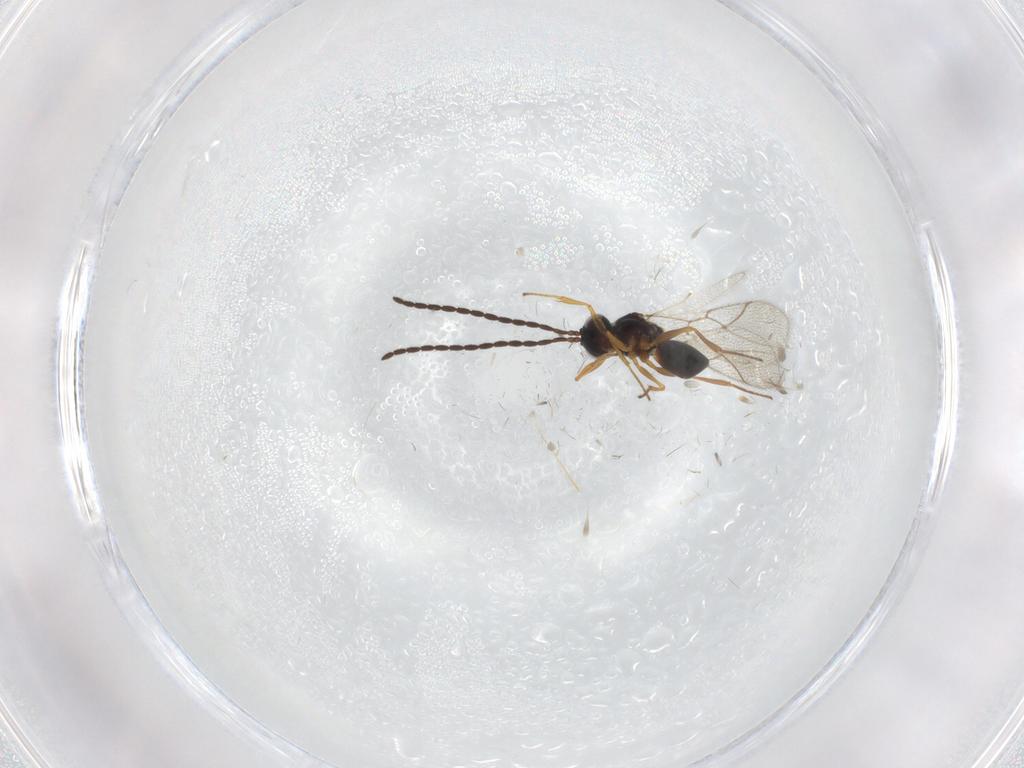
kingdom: Animalia
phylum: Arthropoda
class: Insecta
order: Hymenoptera
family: Figitidae
